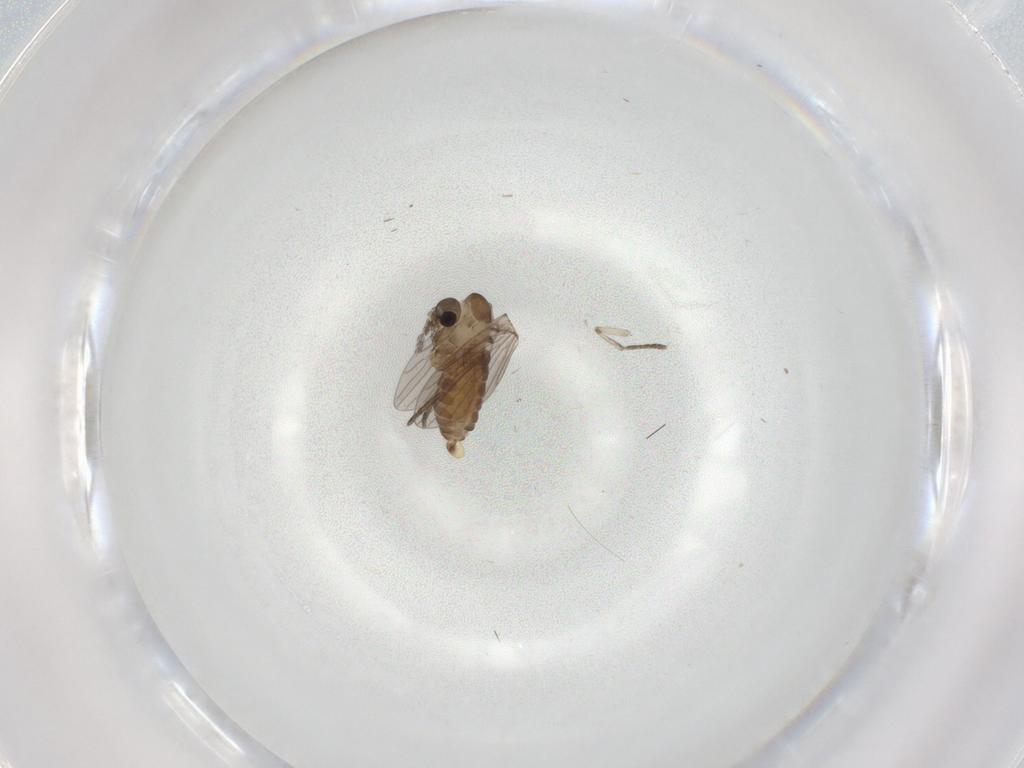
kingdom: Animalia
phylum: Arthropoda
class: Insecta
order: Diptera
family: Psychodidae
